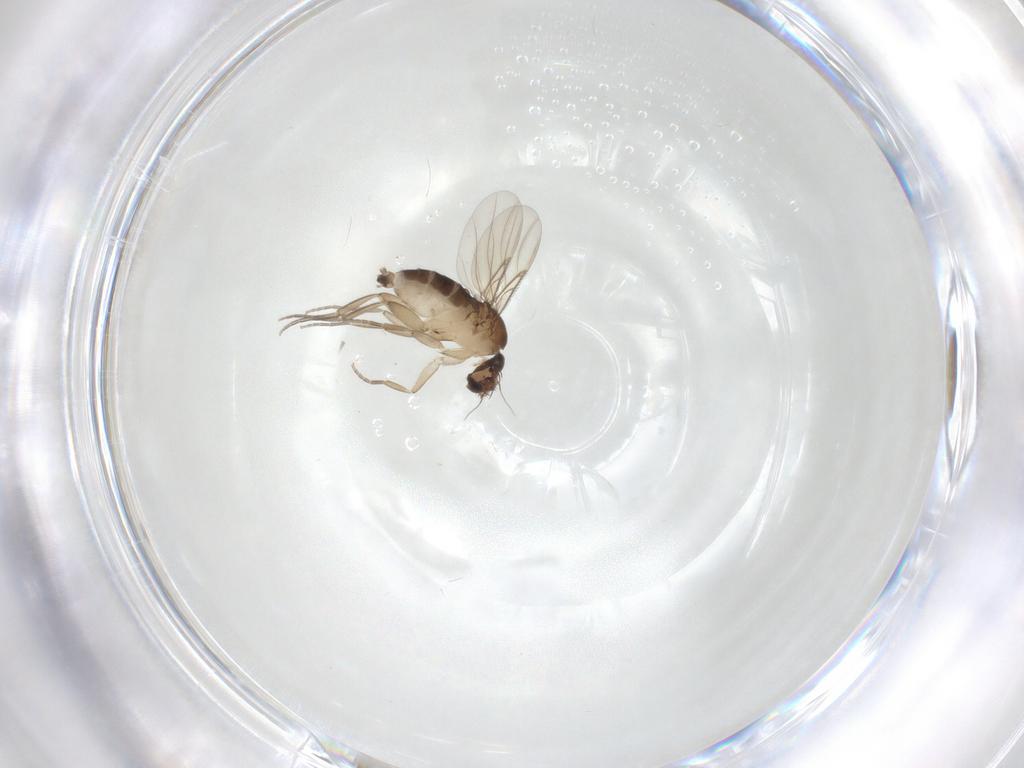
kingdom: Animalia
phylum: Arthropoda
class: Insecta
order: Diptera
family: Phoridae
